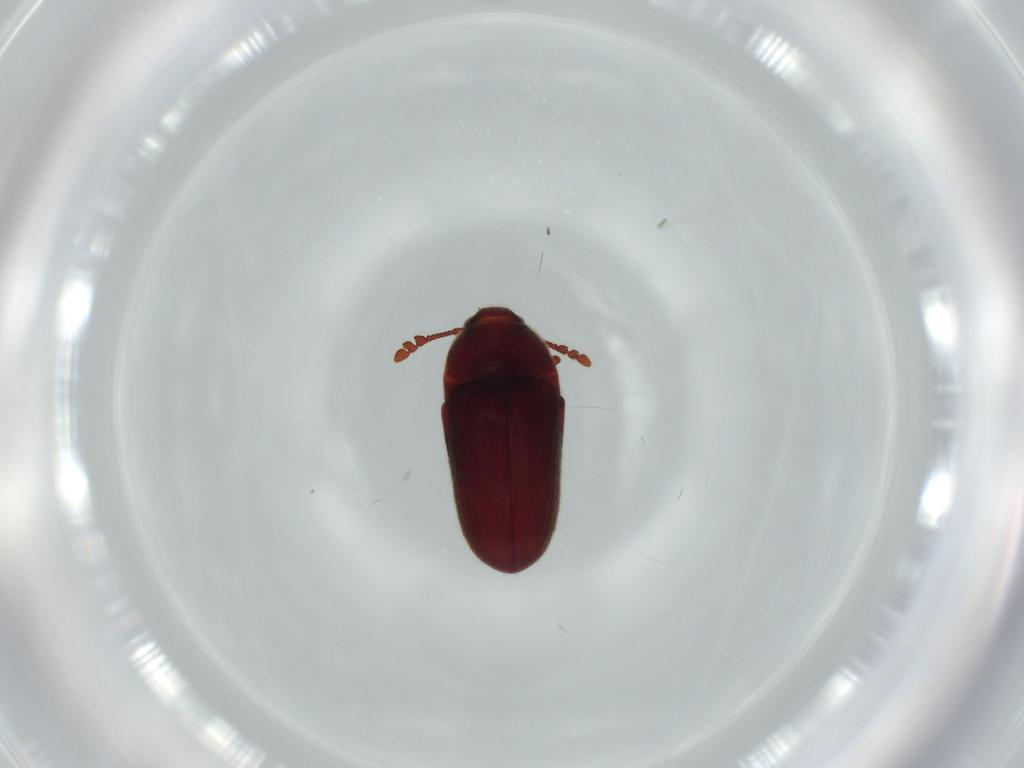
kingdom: Animalia
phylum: Arthropoda
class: Insecta
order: Coleoptera
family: Throscidae
